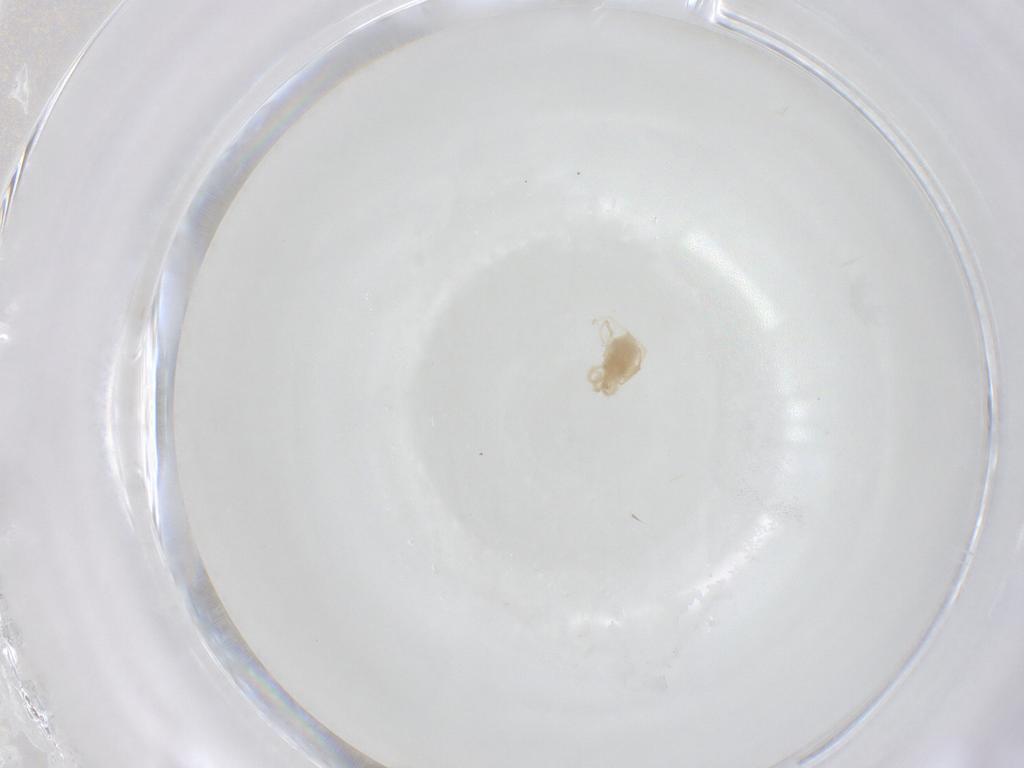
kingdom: Animalia
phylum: Arthropoda
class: Arachnida
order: Trombidiformes
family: Anystidae
